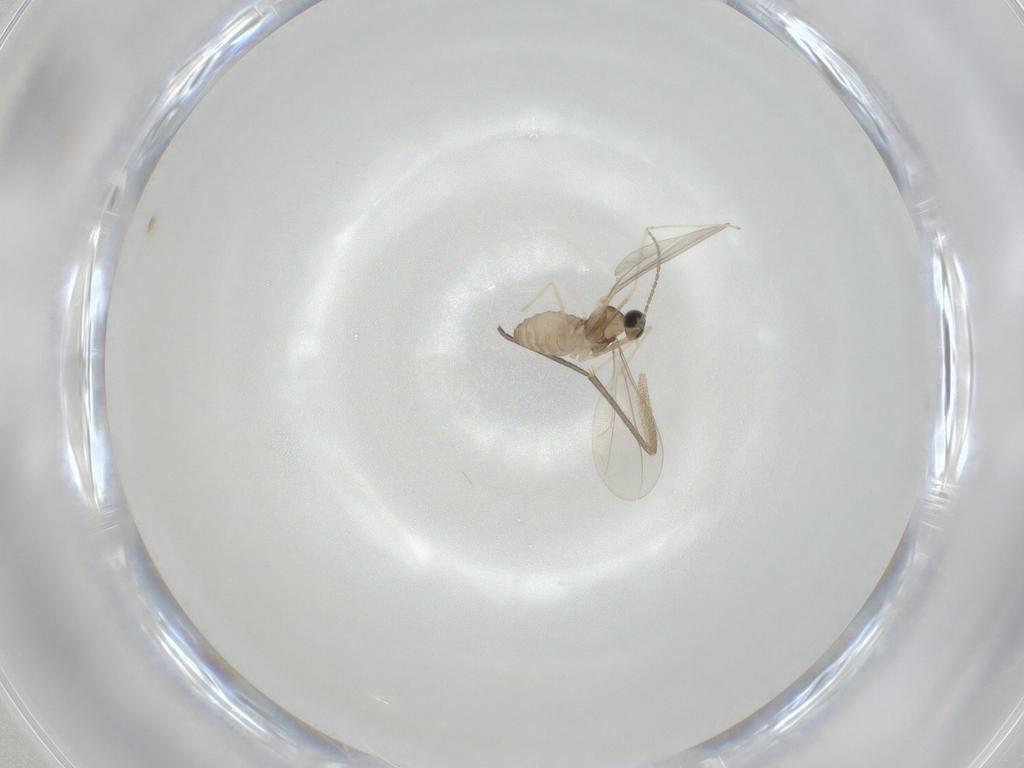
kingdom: Animalia
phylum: Arthropoda
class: Insecta
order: Diptera
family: Cecidomyiidae
